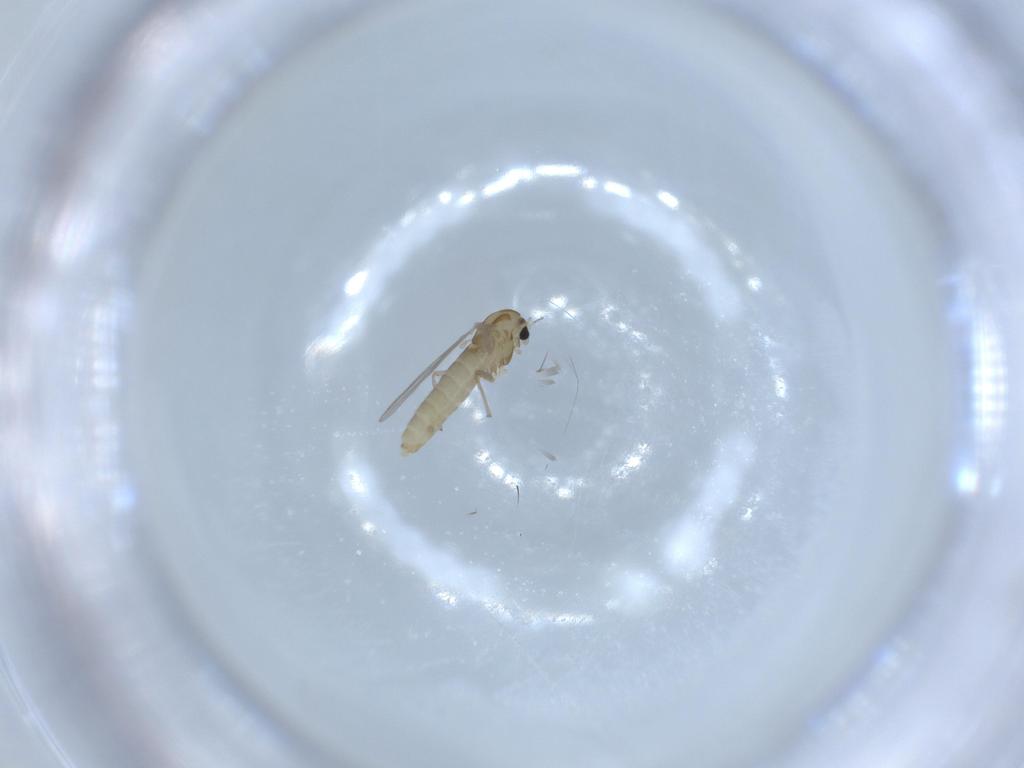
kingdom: Animalia
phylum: Arthropoda
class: Insecta
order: Diptera
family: Chironomidae
